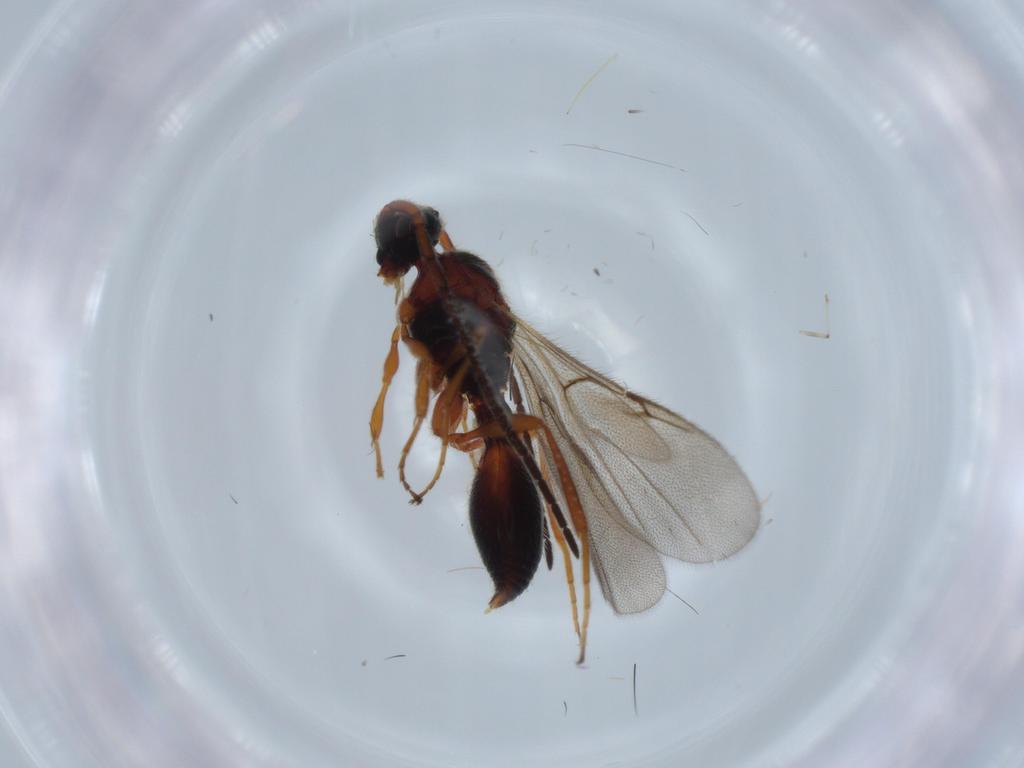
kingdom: Animalia
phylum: Arthropoda
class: Insecta
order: Hymenoptera
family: Diapriidae
